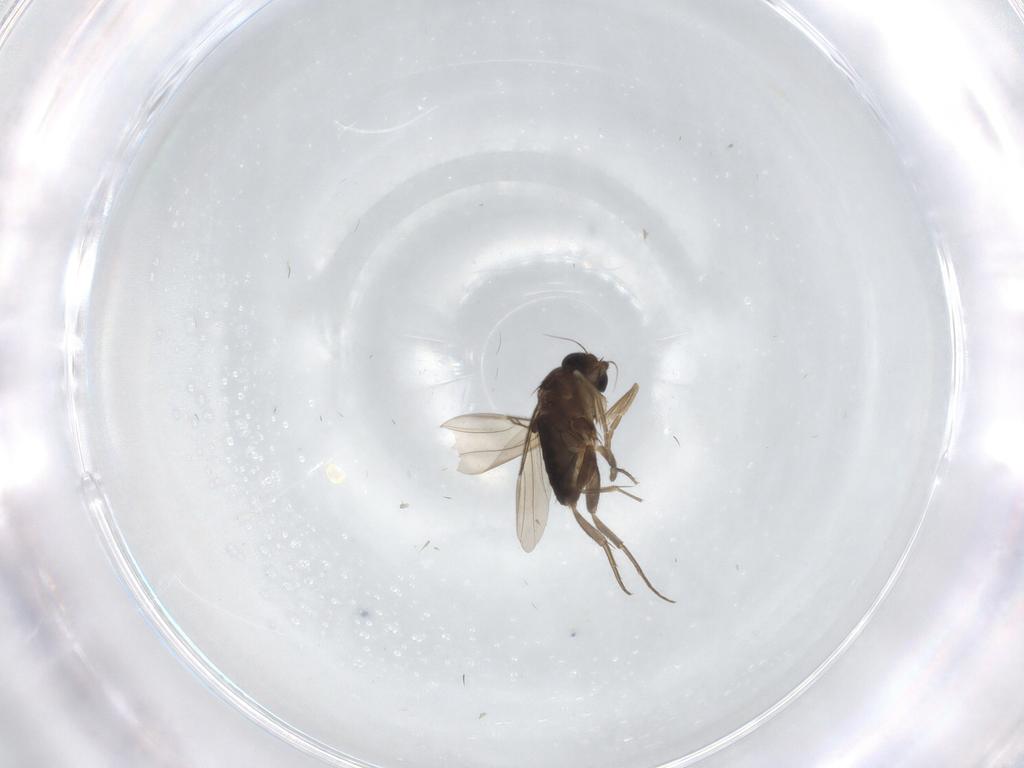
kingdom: Animalia
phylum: Arthropoda
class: Insecta
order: Diptera
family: Phoridae
